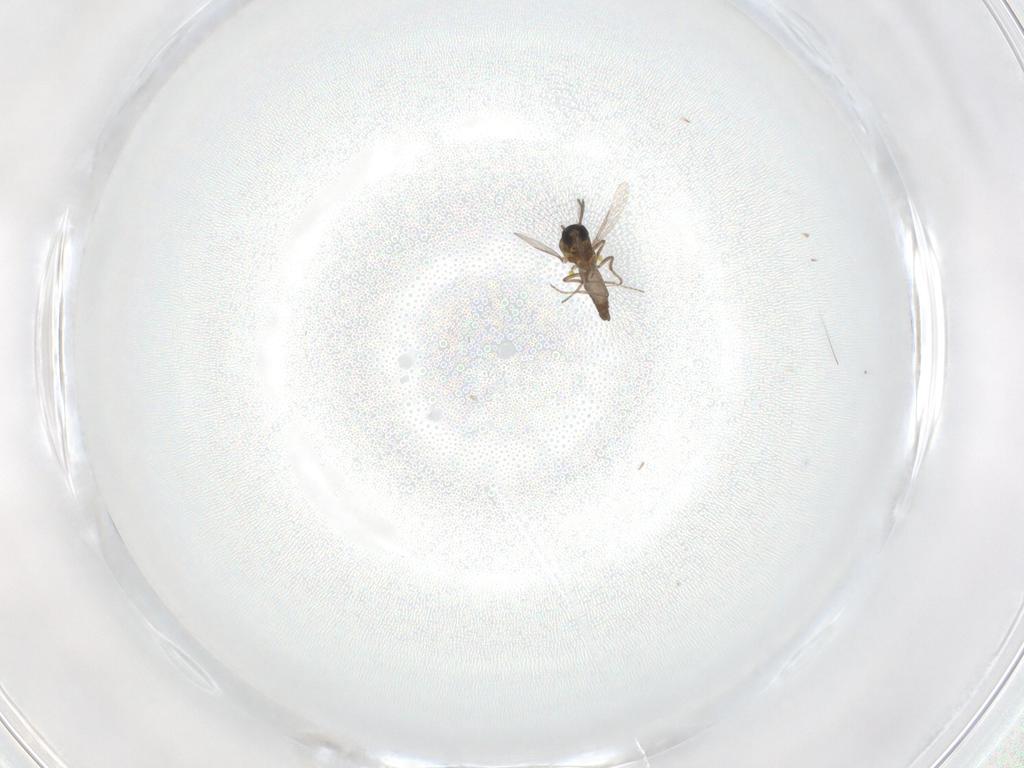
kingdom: Animalia
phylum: Arthropoda
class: Insecta
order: Diptera
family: Ceratopogonidae
